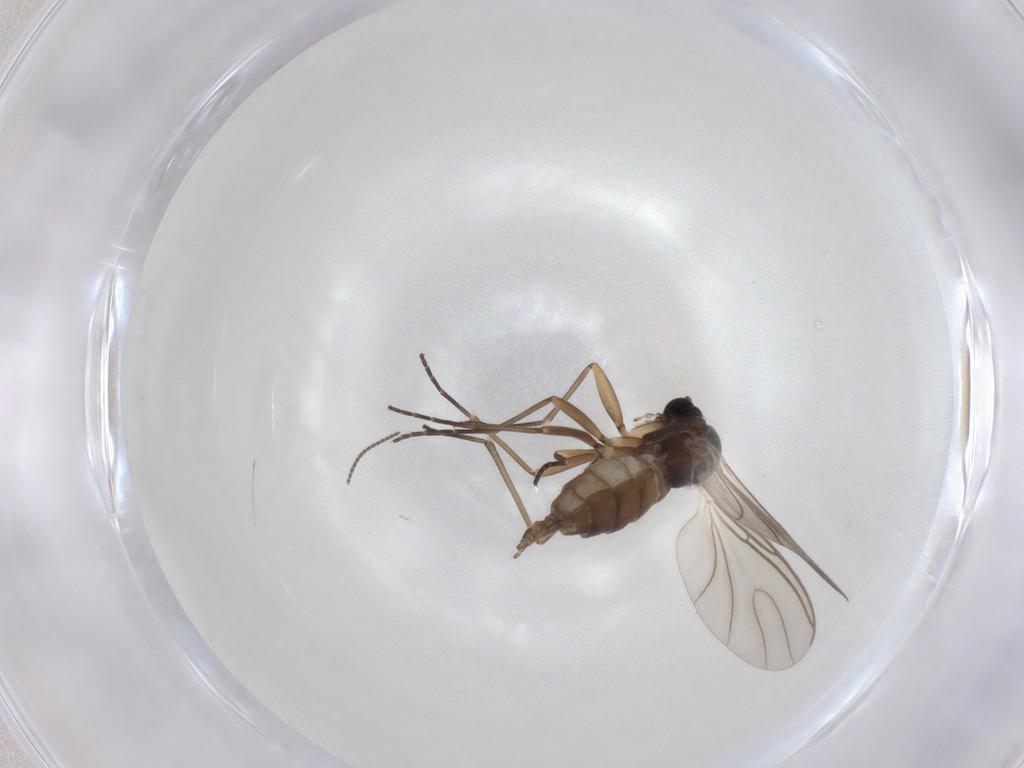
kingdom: Animalia
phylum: Arthropoda
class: Insecta
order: Diptera
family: Sciaridae
